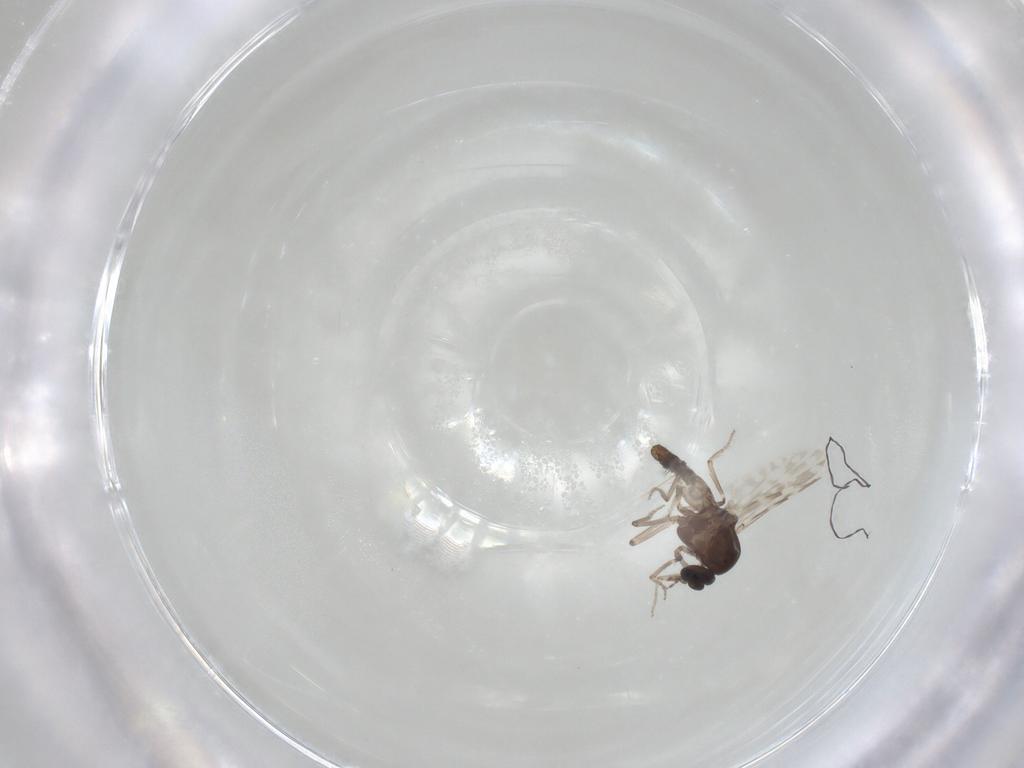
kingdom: Animalia
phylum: Arthropoda
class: Insecta
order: Diptera
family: Ceratopogonidae
